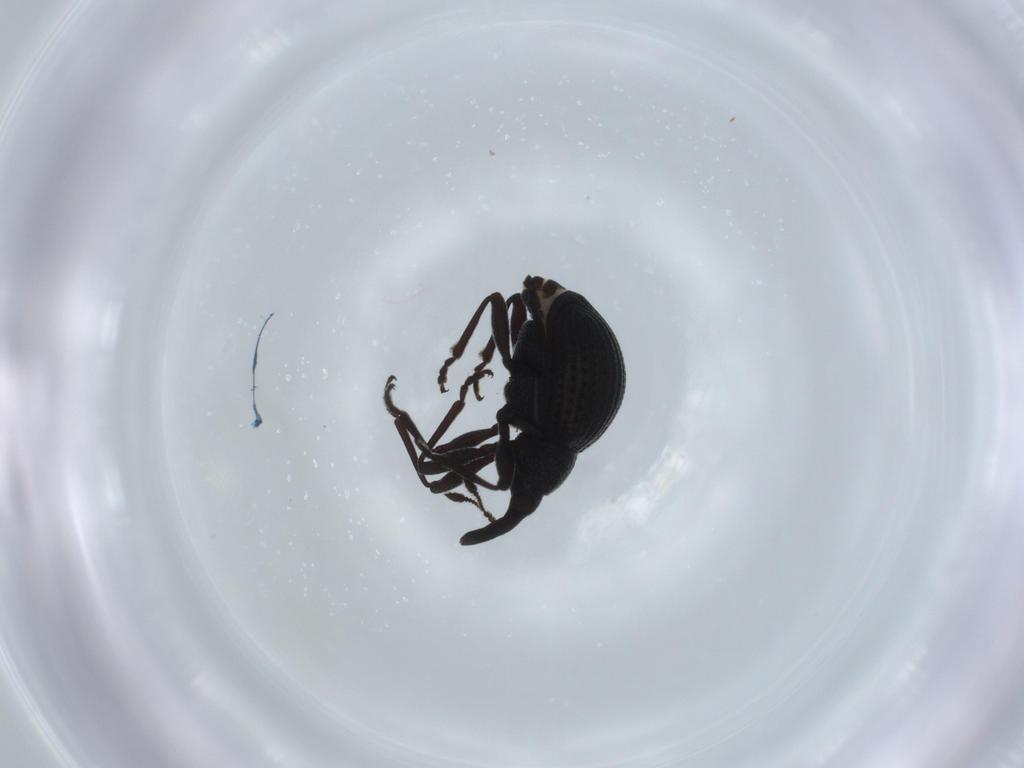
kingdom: Animalia
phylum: Arthropoda
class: Insecta
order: Coleoptera
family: Brentidae
